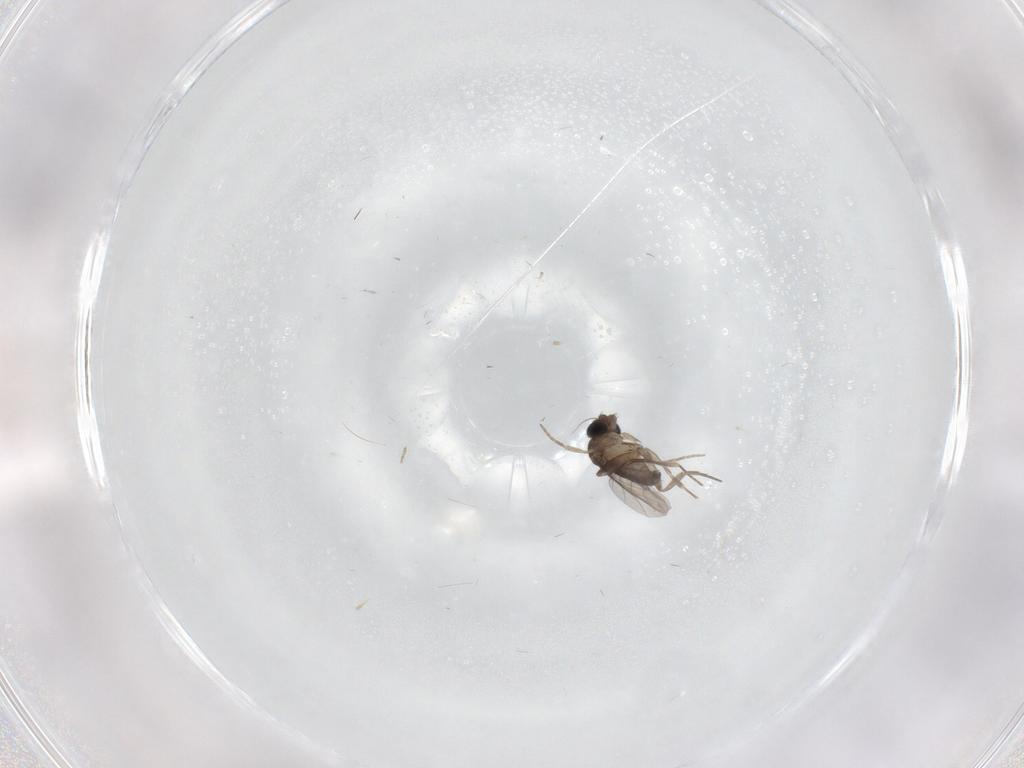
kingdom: Animalia
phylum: Arthropoda
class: Insecta
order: Diptera
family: Phoridae
